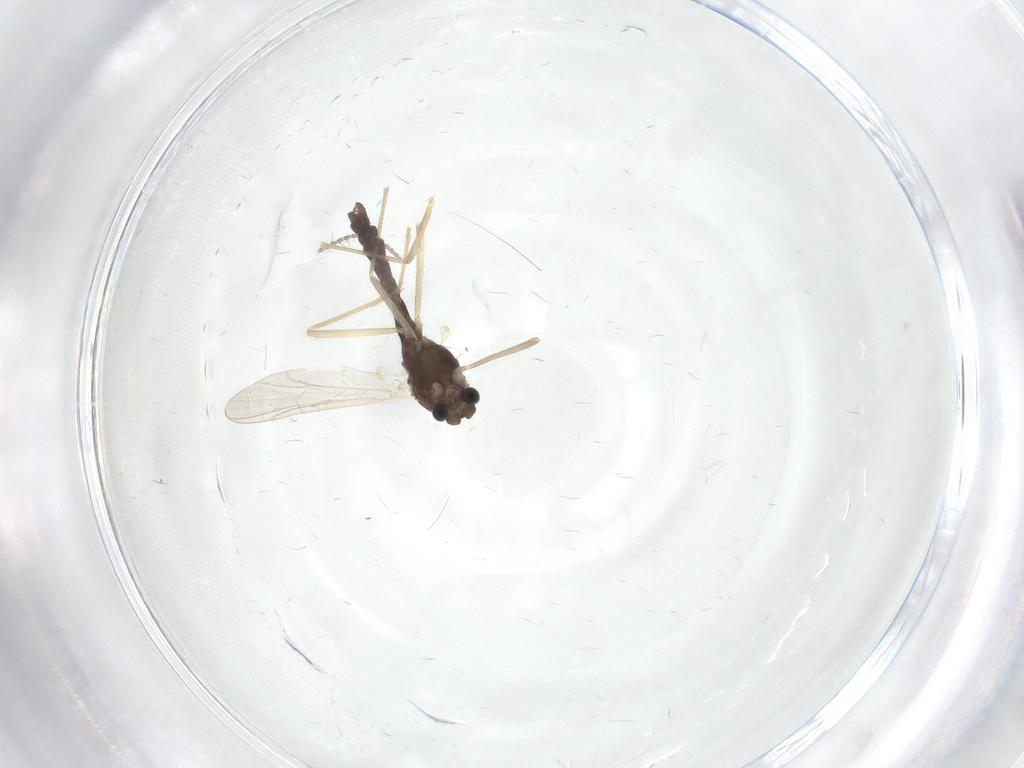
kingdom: Animalia
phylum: Arthropoda
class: Insecta
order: Diptera
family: Chironomidae
